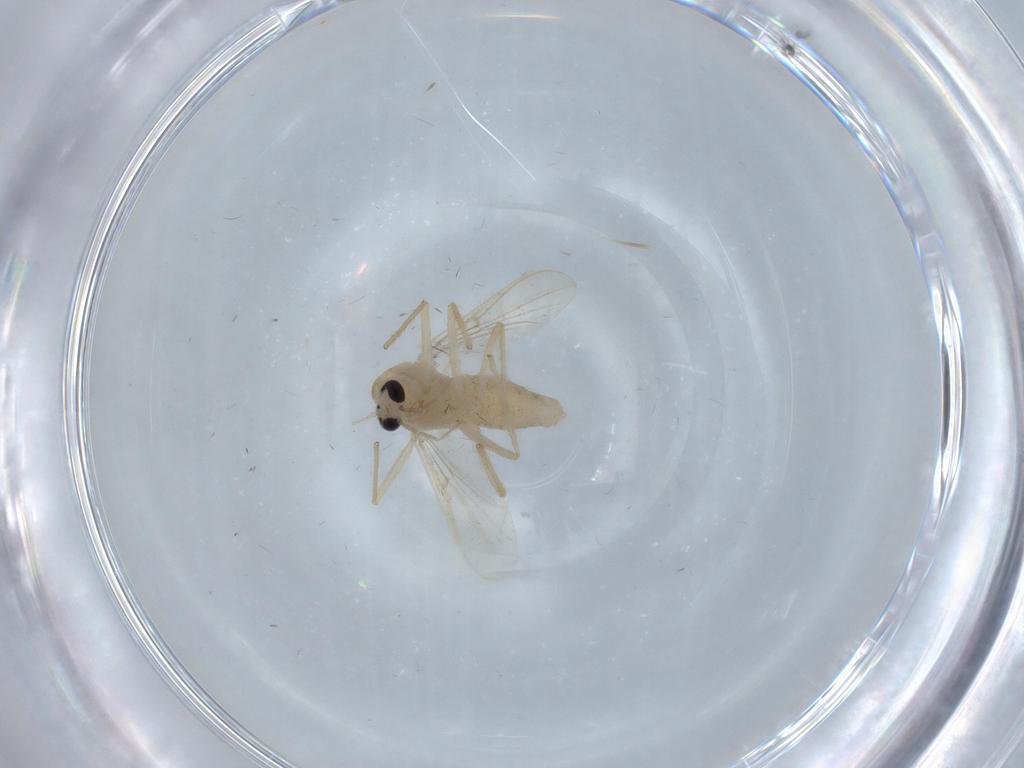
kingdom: Animalia
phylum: Arthropoda
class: Insecta
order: Diptera
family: Chironomidae
